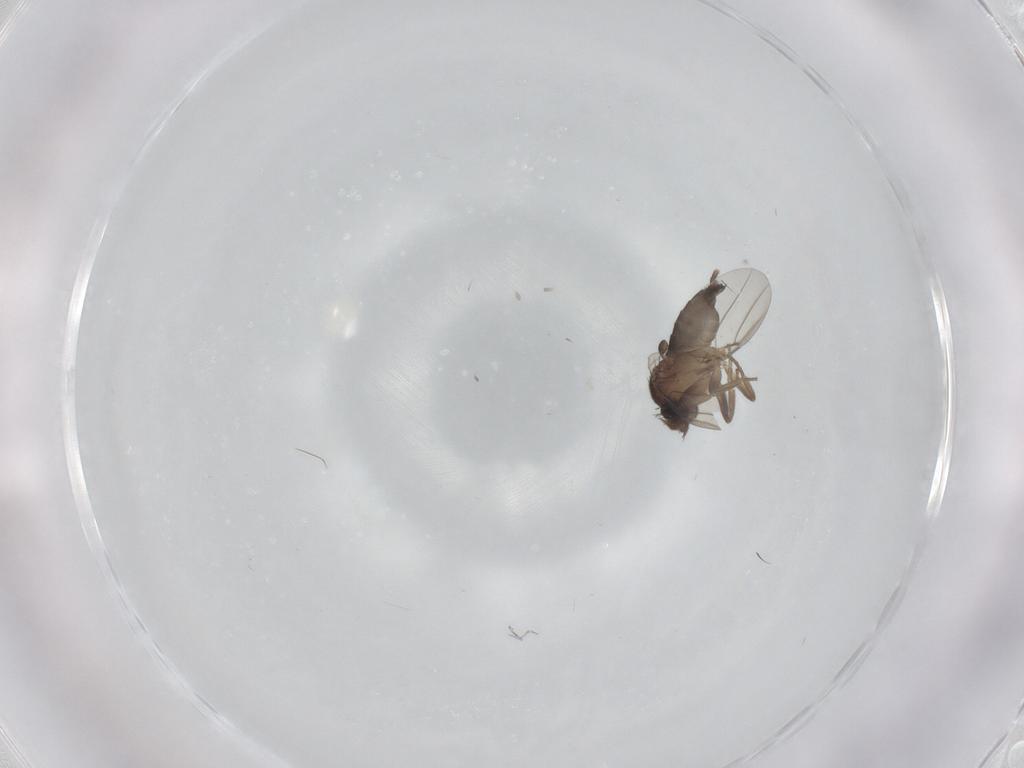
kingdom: Animalia
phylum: Arthropoda
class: Insecta
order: Diptera
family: Phoridae
